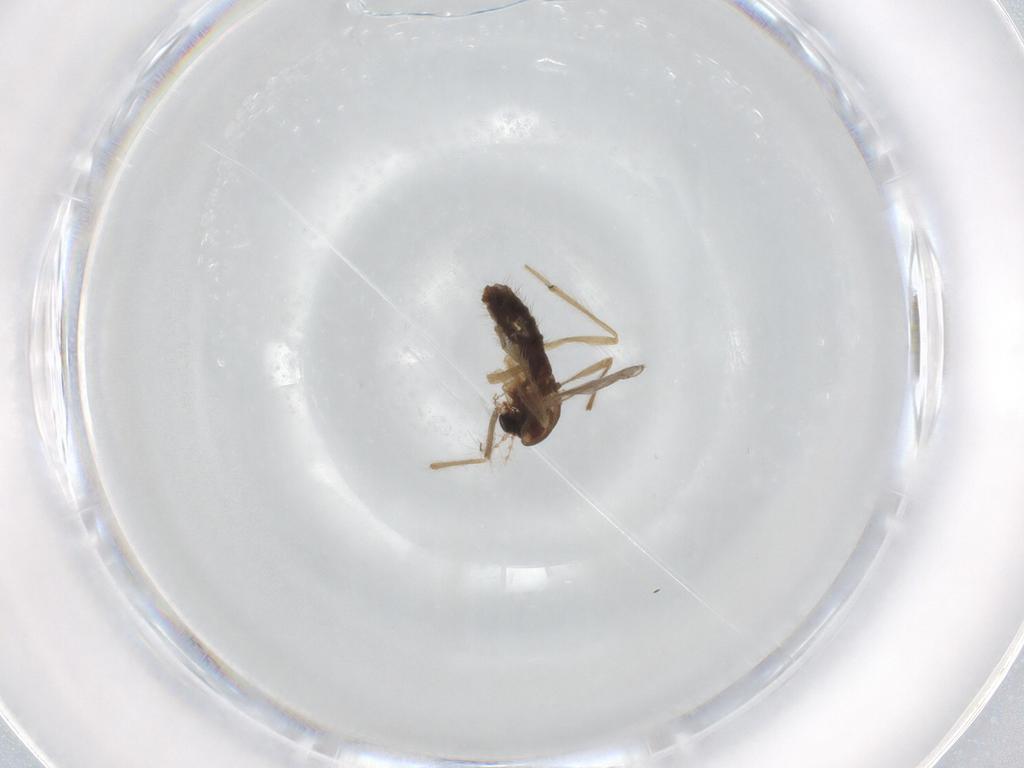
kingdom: Animalia
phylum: Arthropoda
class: Insecta
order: Diptera
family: Chironomidae
